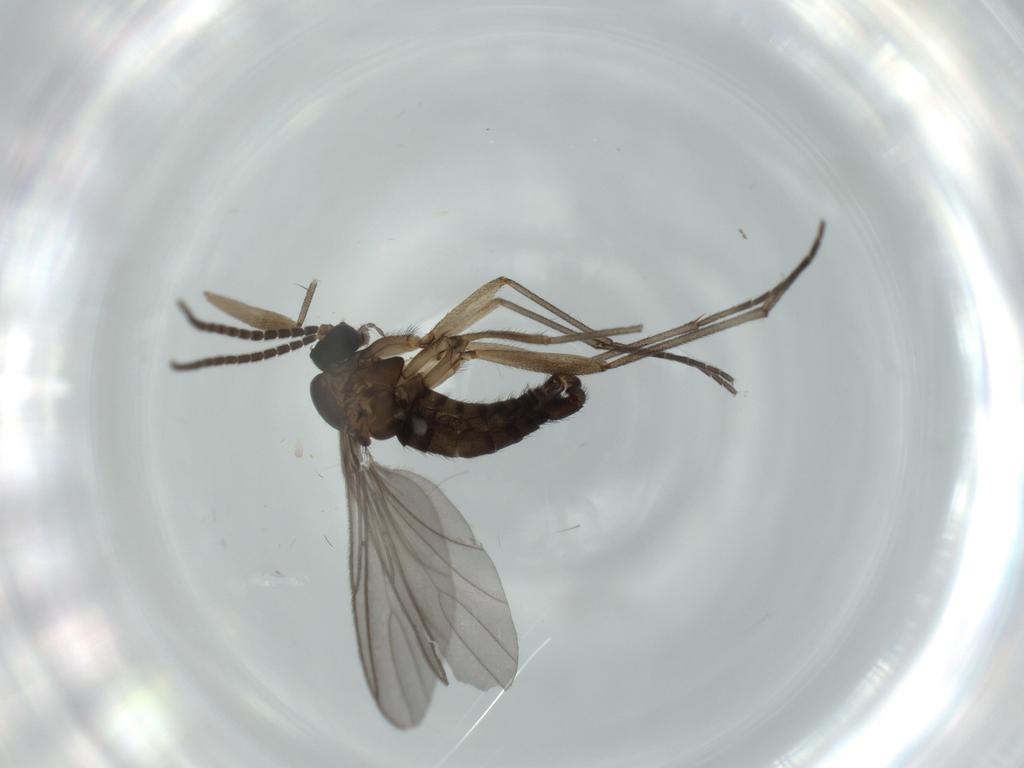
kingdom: Animalia
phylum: Arthropoda
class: Insecta
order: Diptera
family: Sciaridae
